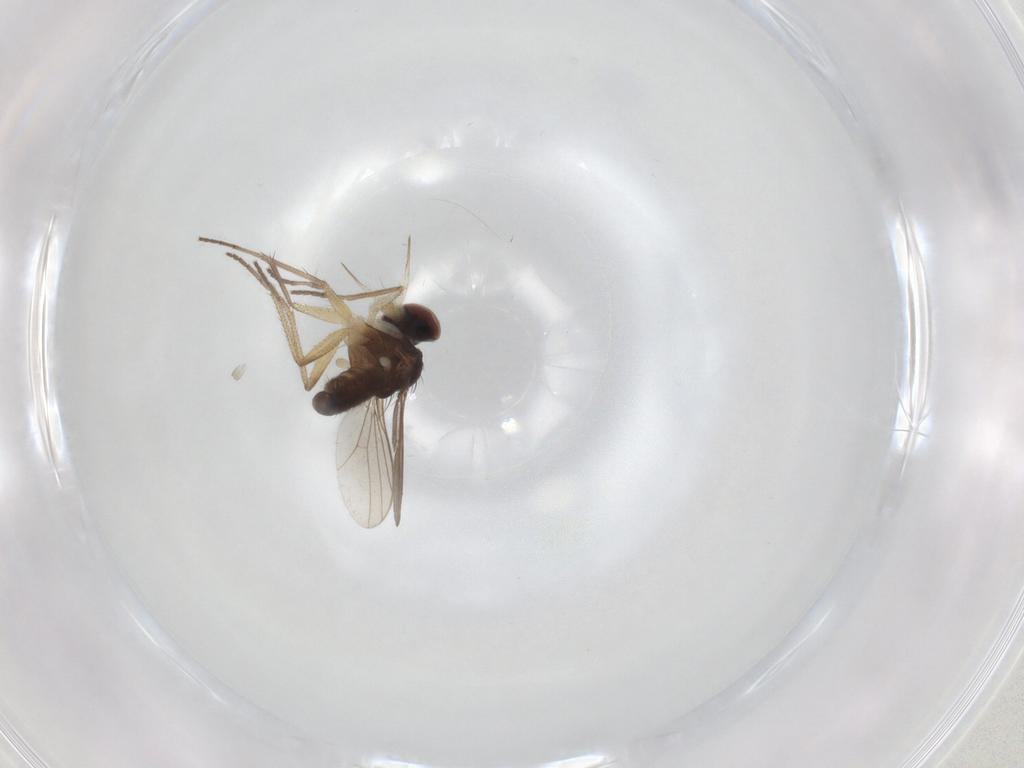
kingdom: Animalia
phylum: Arthropoda
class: Insecta
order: Diptera
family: Dolichopodidae
